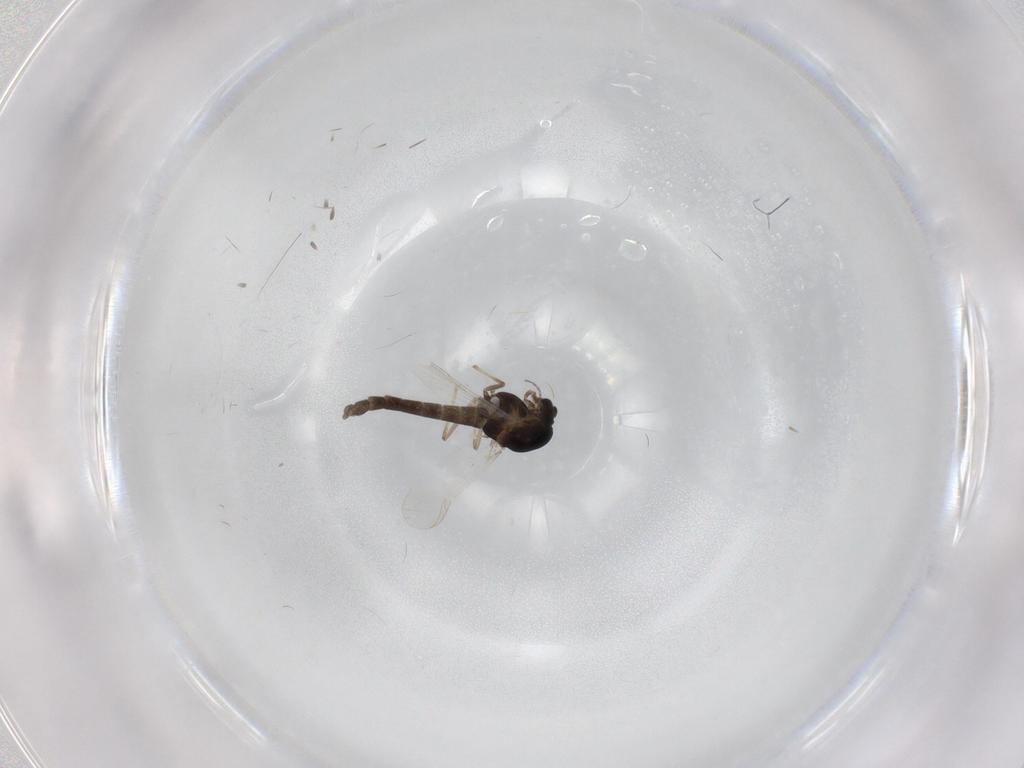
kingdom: Animalia
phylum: Arthropoda
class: Insecta
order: Diptera
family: Chironomidae
